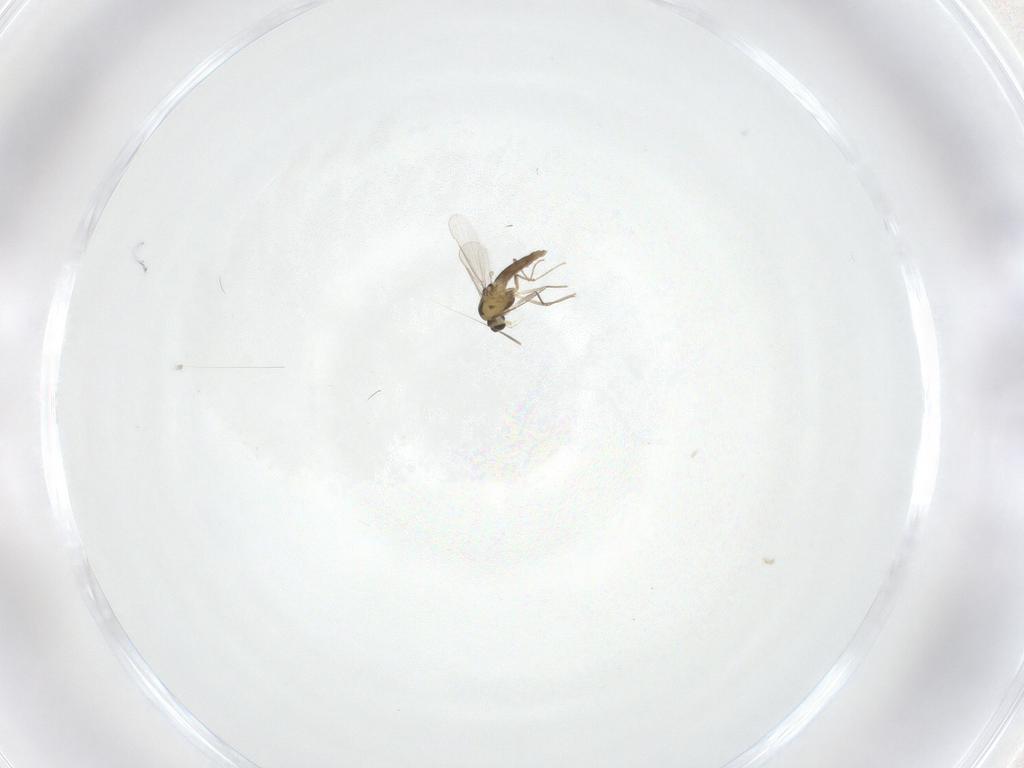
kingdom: Animalia
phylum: Arthropoda
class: Insecta
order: Diptera
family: Chironomidae
